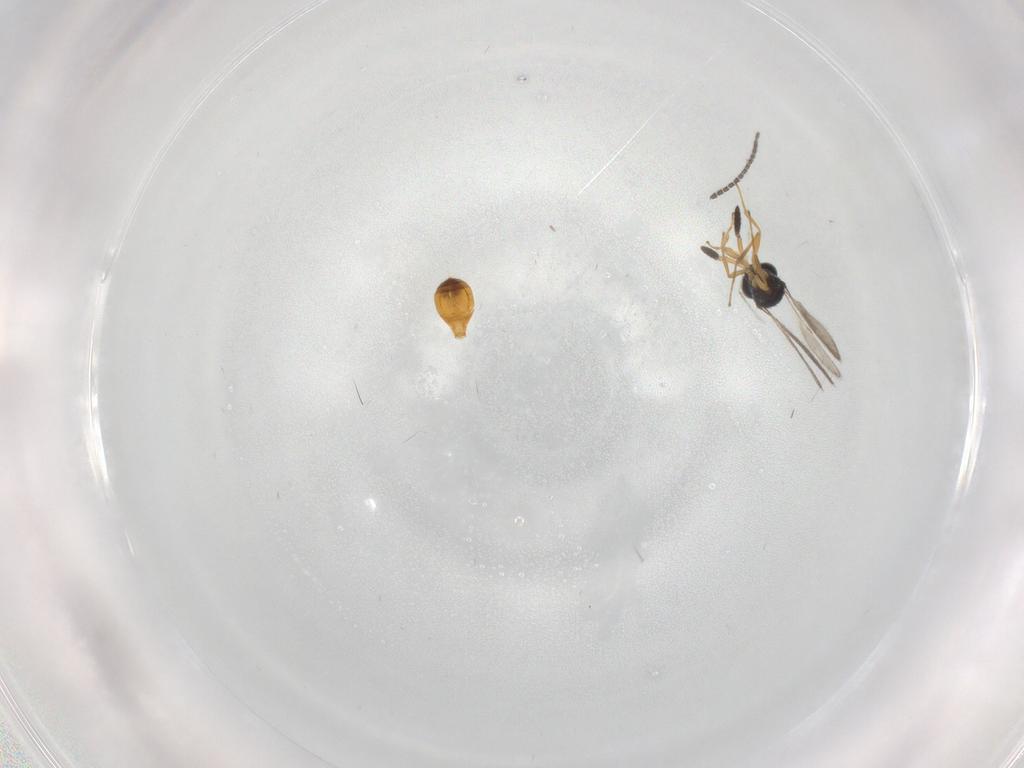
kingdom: Animalia
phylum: Arthropoda
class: Insecta
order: Hymenoptera
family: Scelionidae
